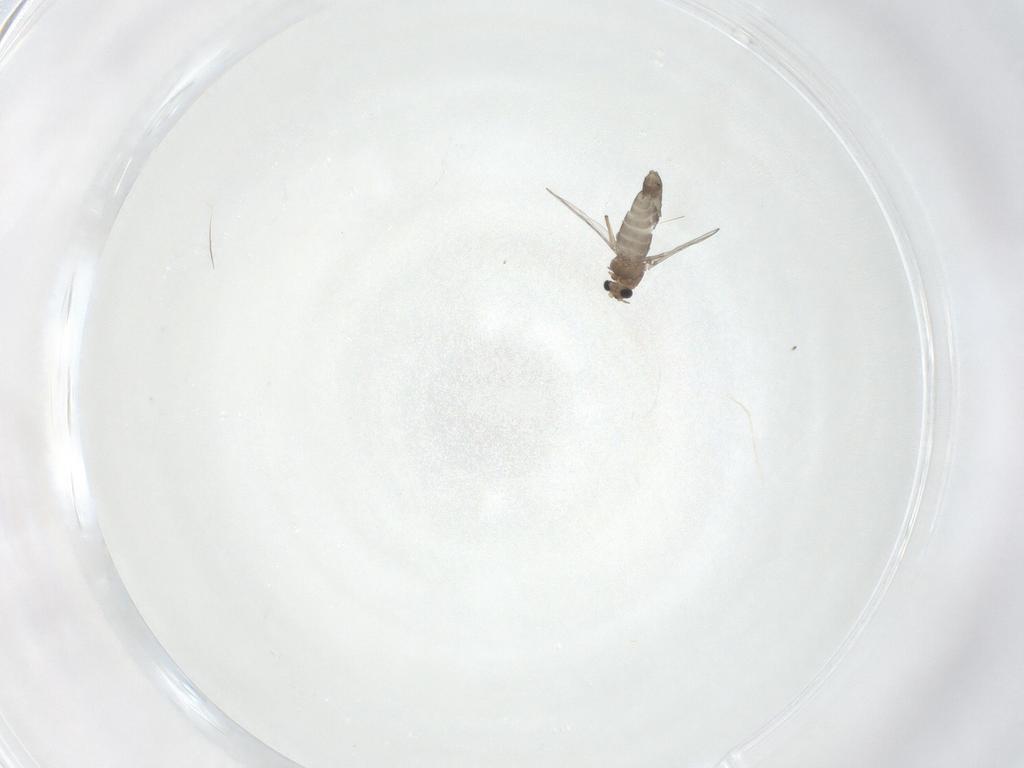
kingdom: Animalia
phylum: Arthropoda
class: Insecta
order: Diptera
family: Chironomidae
